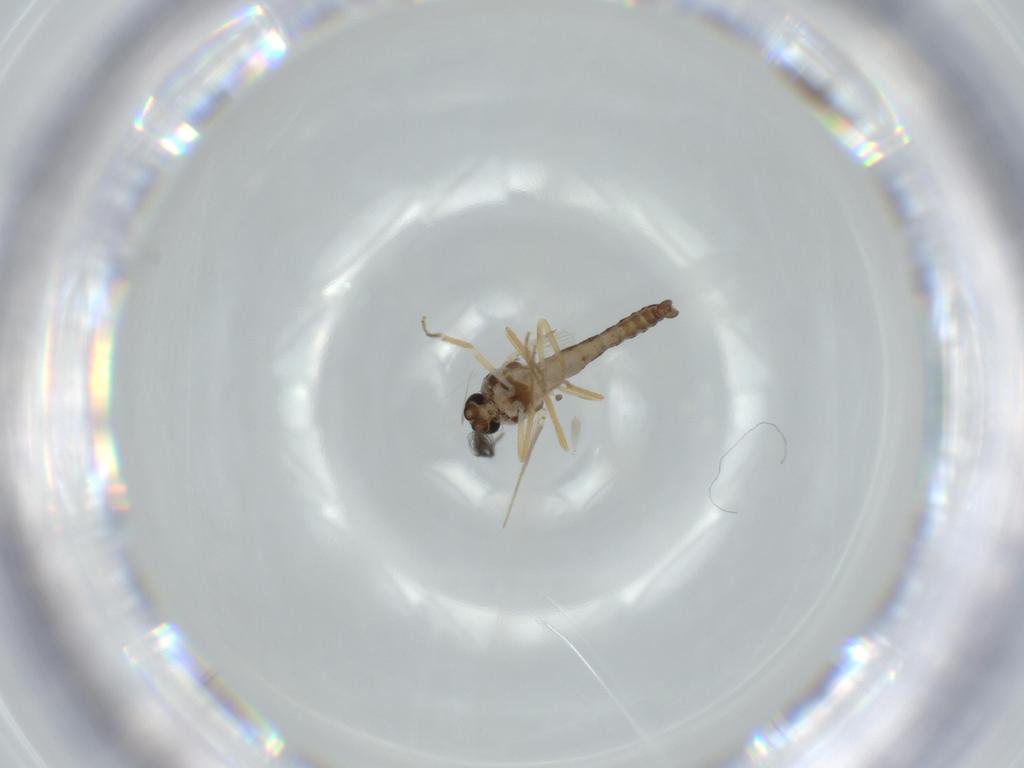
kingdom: Animalia
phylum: Arthropoda
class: Insecta
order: Diptera
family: Ceratopogonidae
